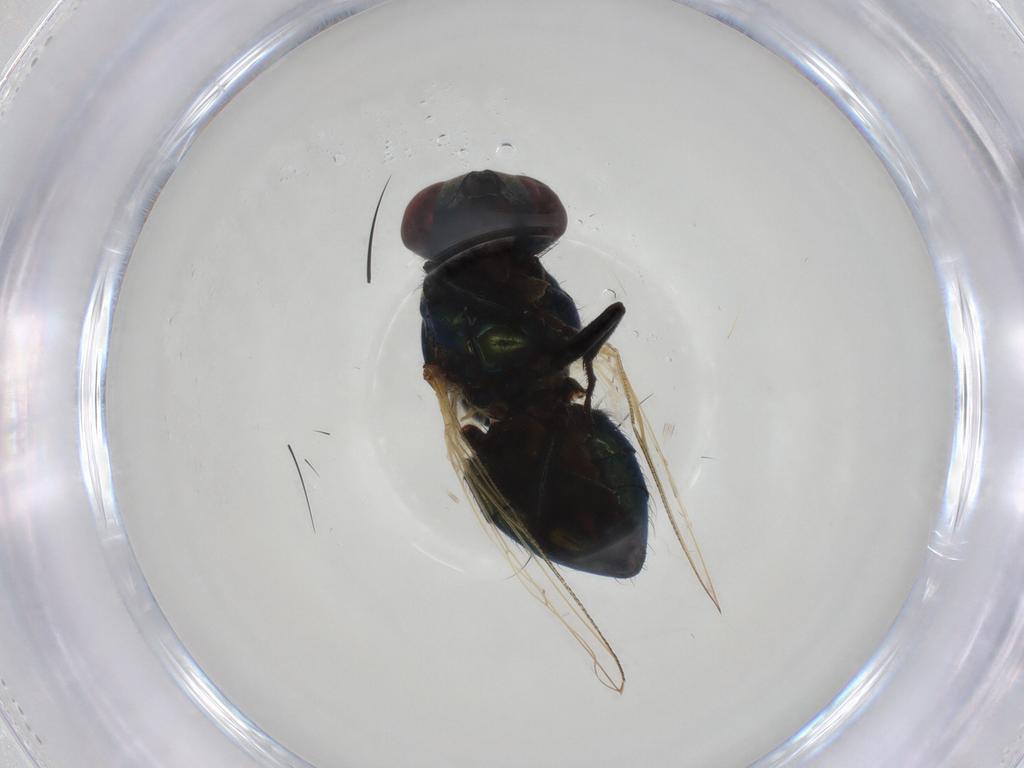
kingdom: Animalia
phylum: Arthropoda
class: Insecta
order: Diptera
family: Muscidae
